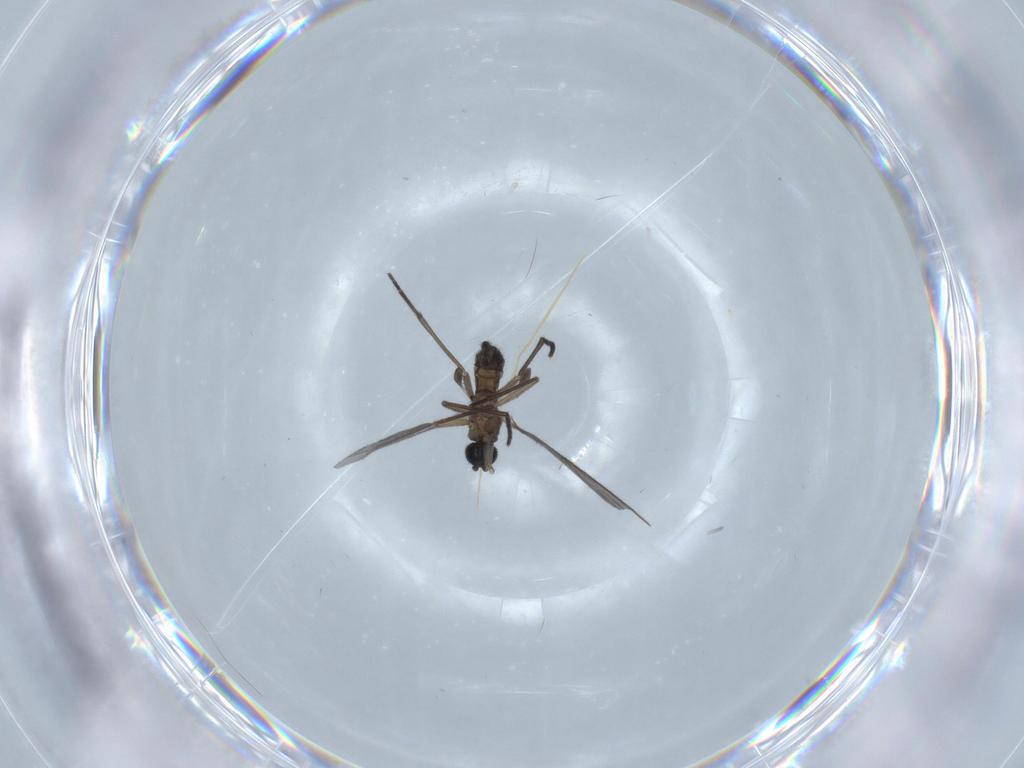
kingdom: Animalia
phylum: Arthropoda
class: Insecta
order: Diptera
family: Sciaridae
